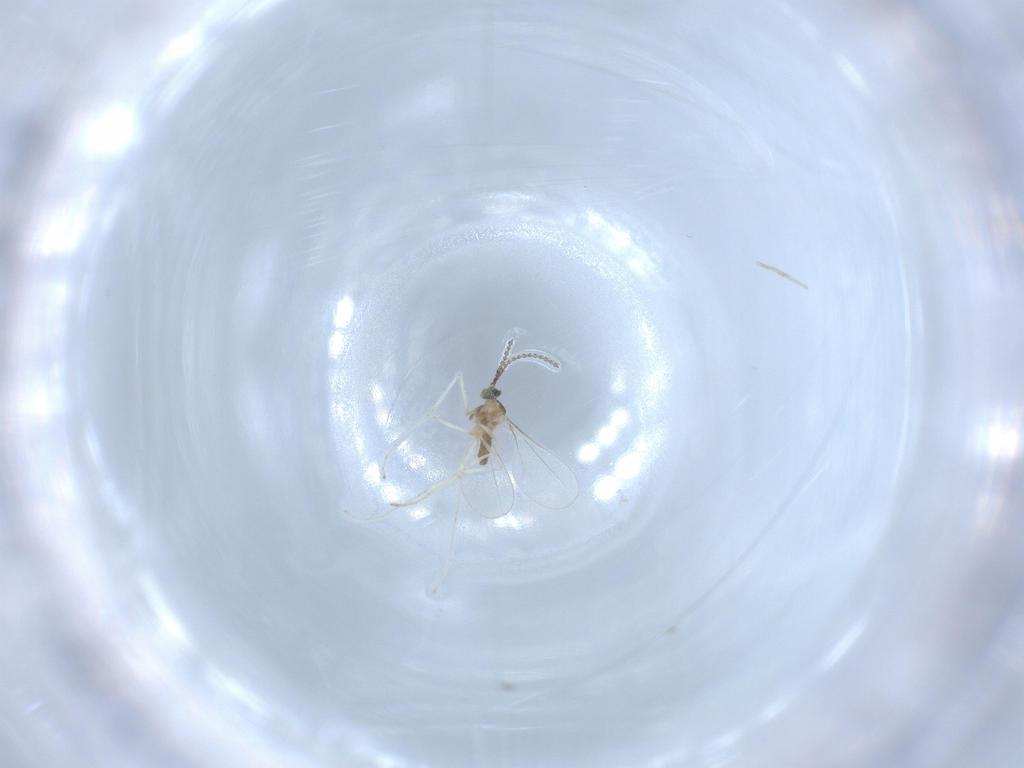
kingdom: Animalia
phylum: Arthropoda
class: Insecta
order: Diptera
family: Cecidomyiidae
